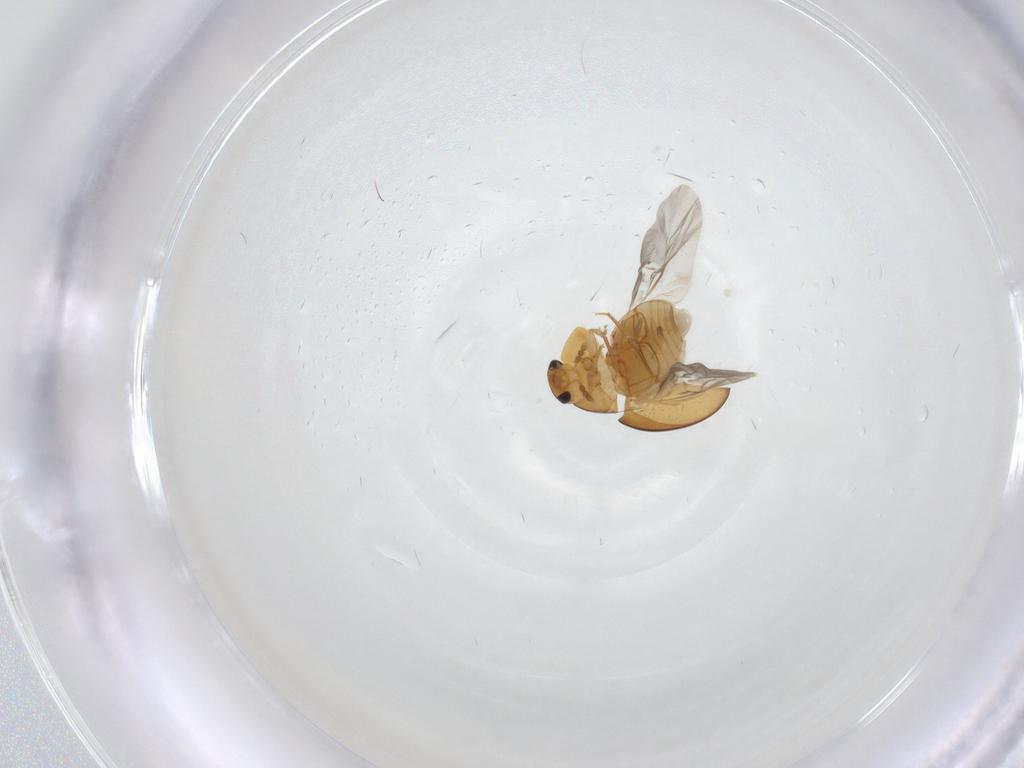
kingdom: Animalia
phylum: Arthropoda
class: Insecta
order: Coleoptera
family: Phalacridae
